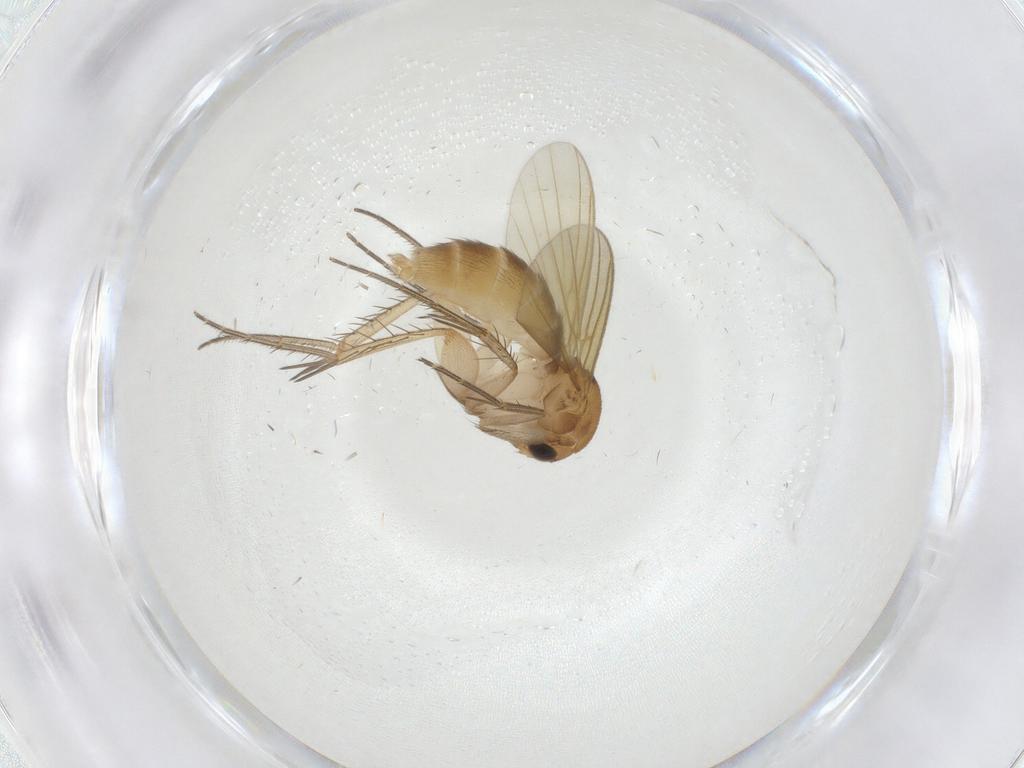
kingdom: Animalia
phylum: Arthropoda
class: Insecta
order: Diptera
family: Mycetophilidae
